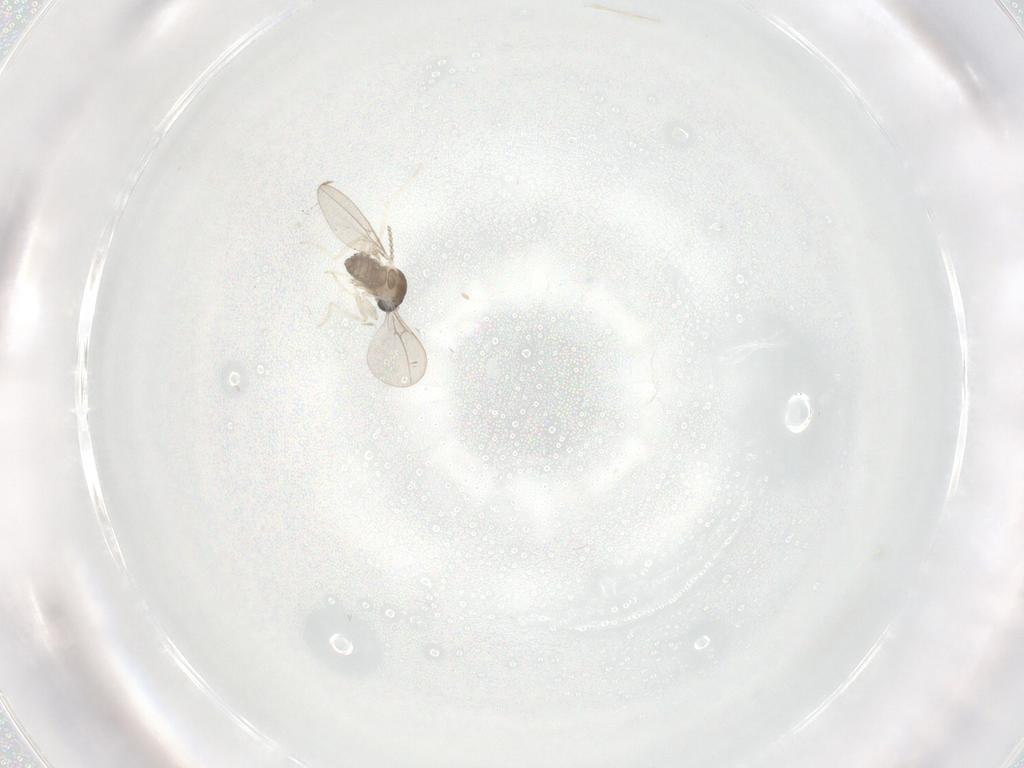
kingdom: Animalia
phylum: Arthropoda
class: Insecta
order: Diptera
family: Cecidomyiidae
